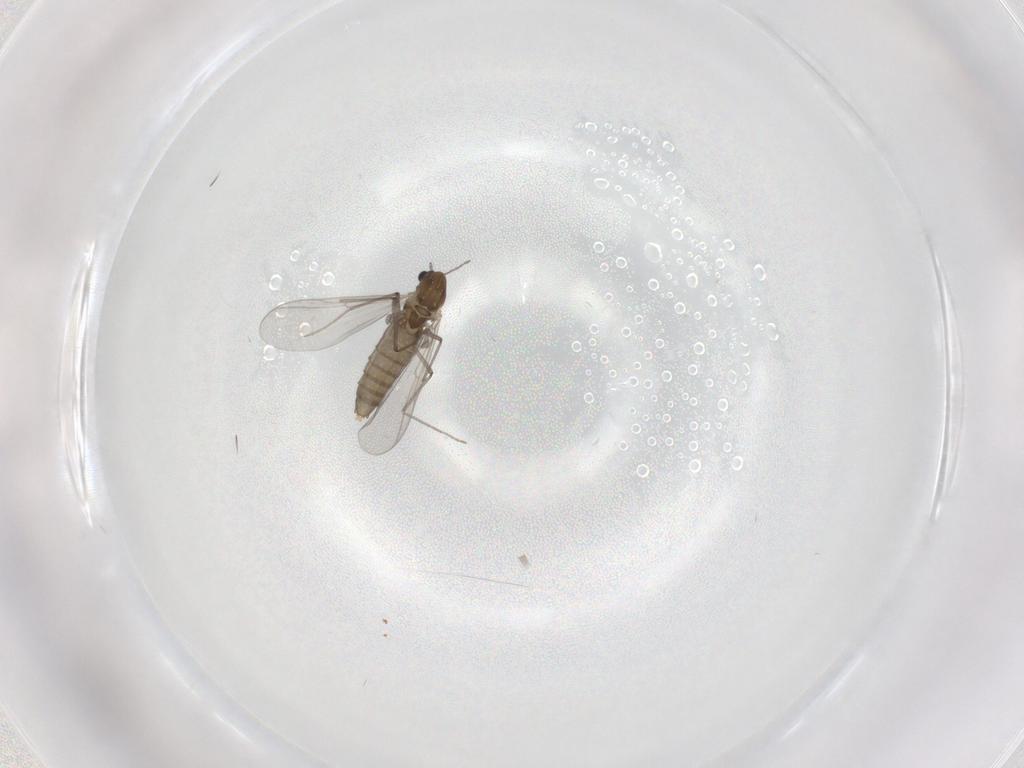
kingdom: Animalia
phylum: Arthropoda
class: Insecta
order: Diptera
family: Chironomidae
